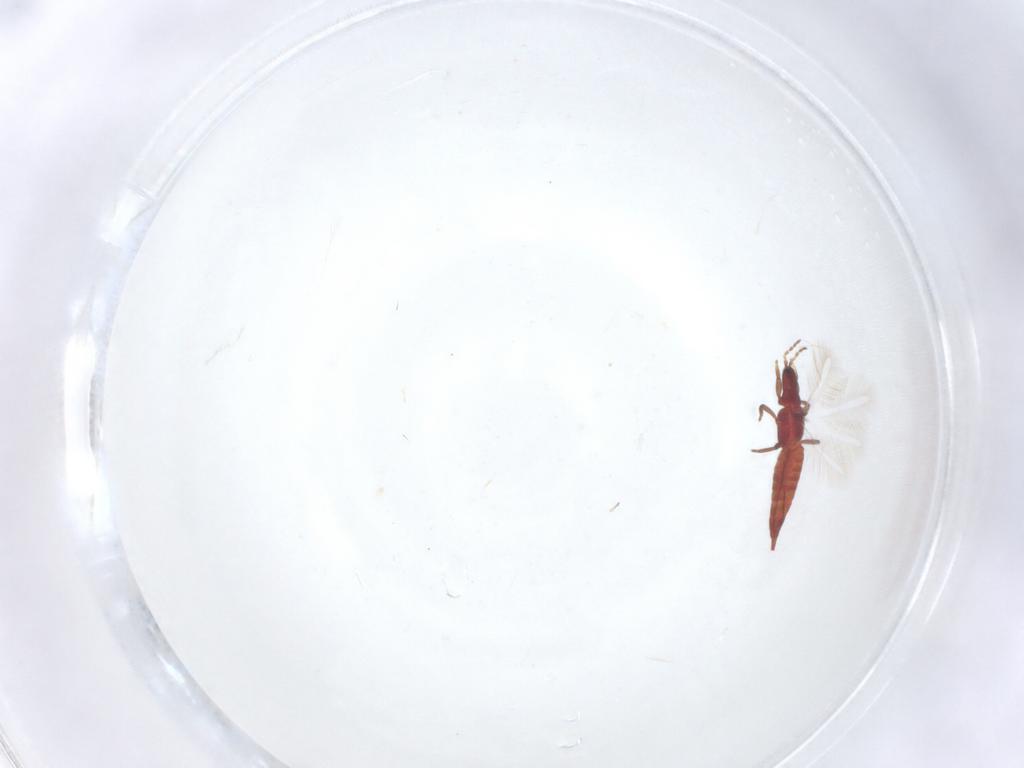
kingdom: Animalia
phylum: Arthropoda
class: Insecta
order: Thysanoptera
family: Phlaeothripidae
